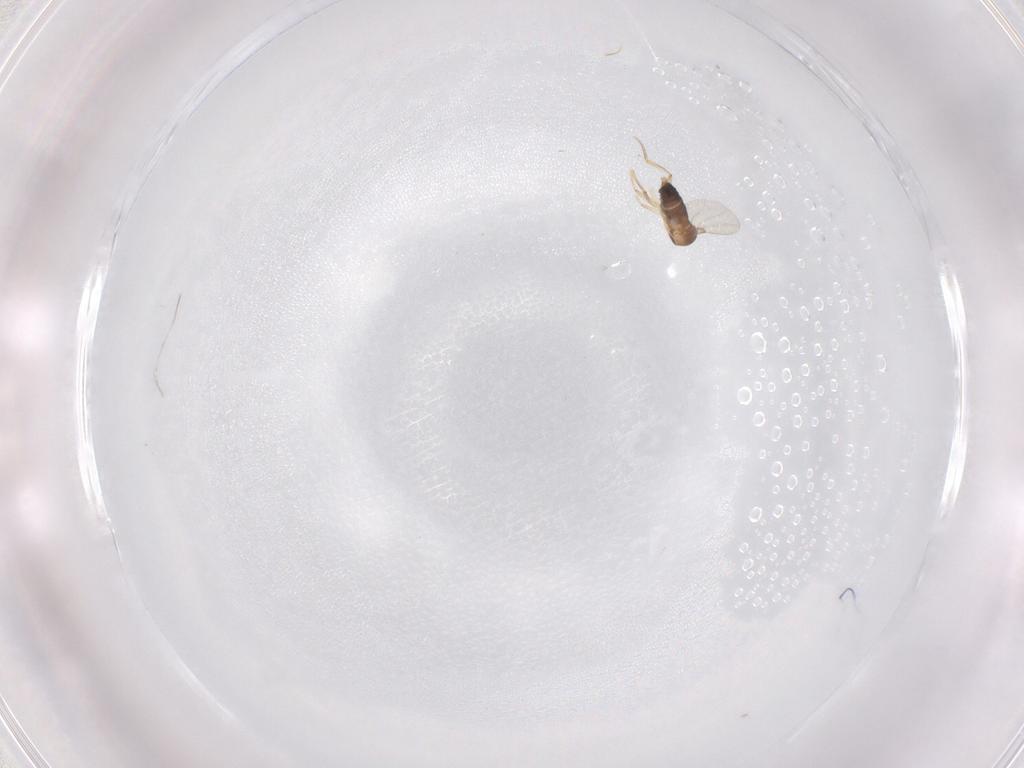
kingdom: Animalia
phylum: Arthropoda
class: Insecta
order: Diptera
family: Phoridae
